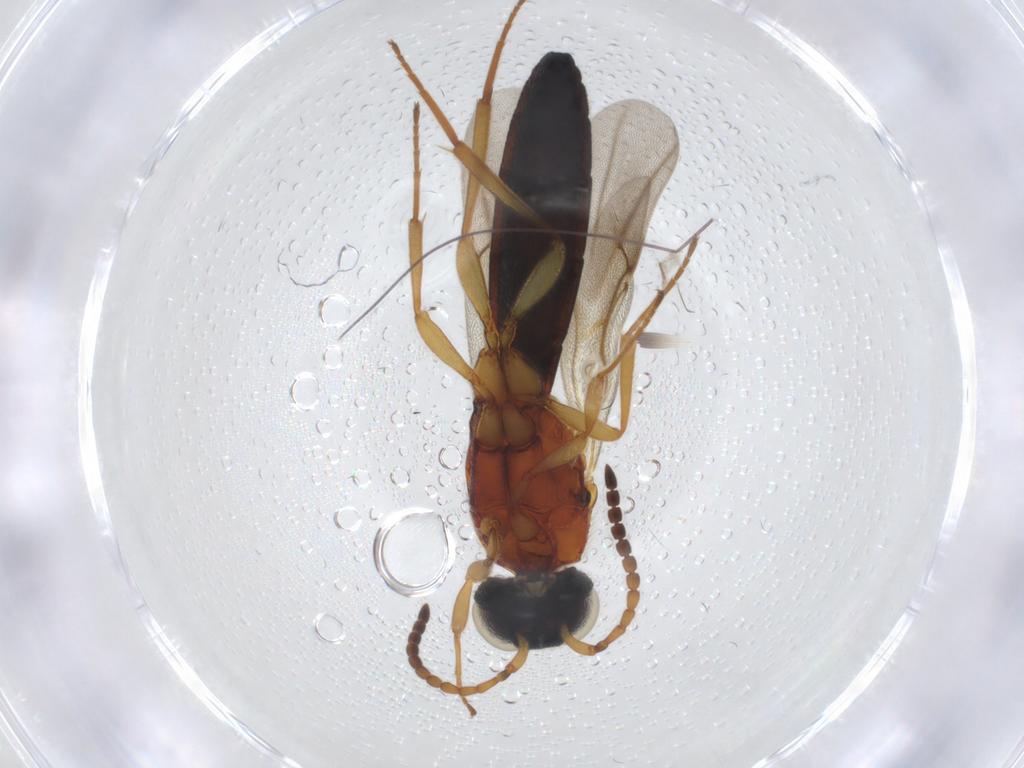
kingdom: Animalia
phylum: Arthropoda
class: Insecta
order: Hymenoptera
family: Scelionidae
